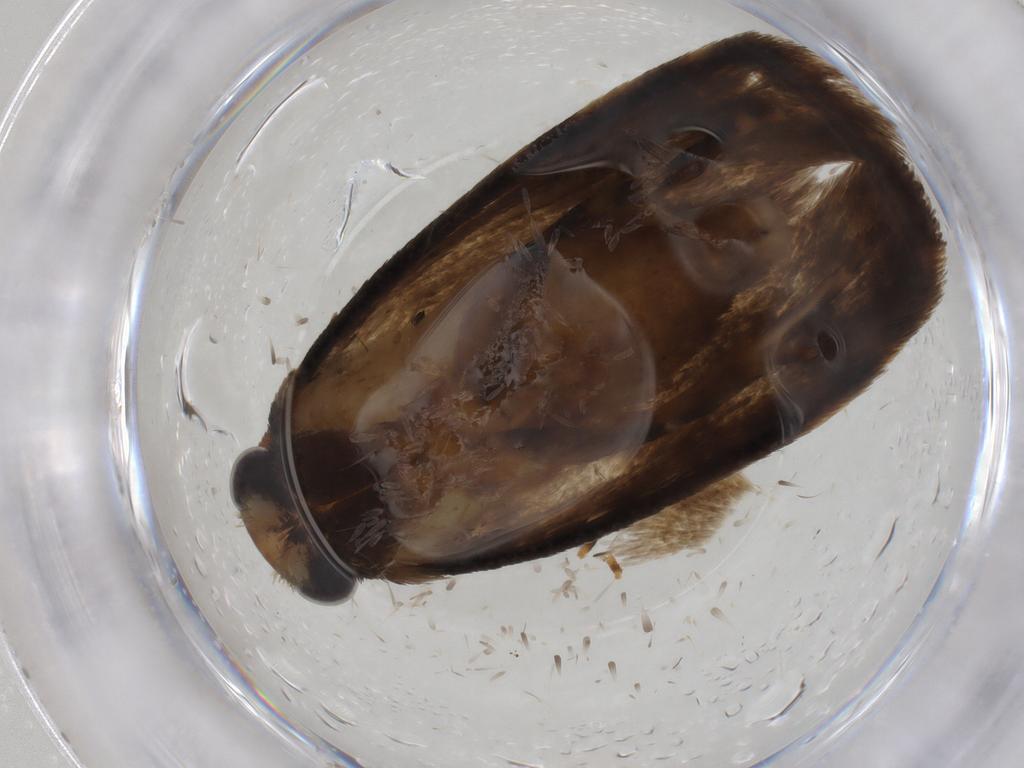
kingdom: Animalia
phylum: Arthropoda
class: Insecta
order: Lepidoptera
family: Nepticulidae
